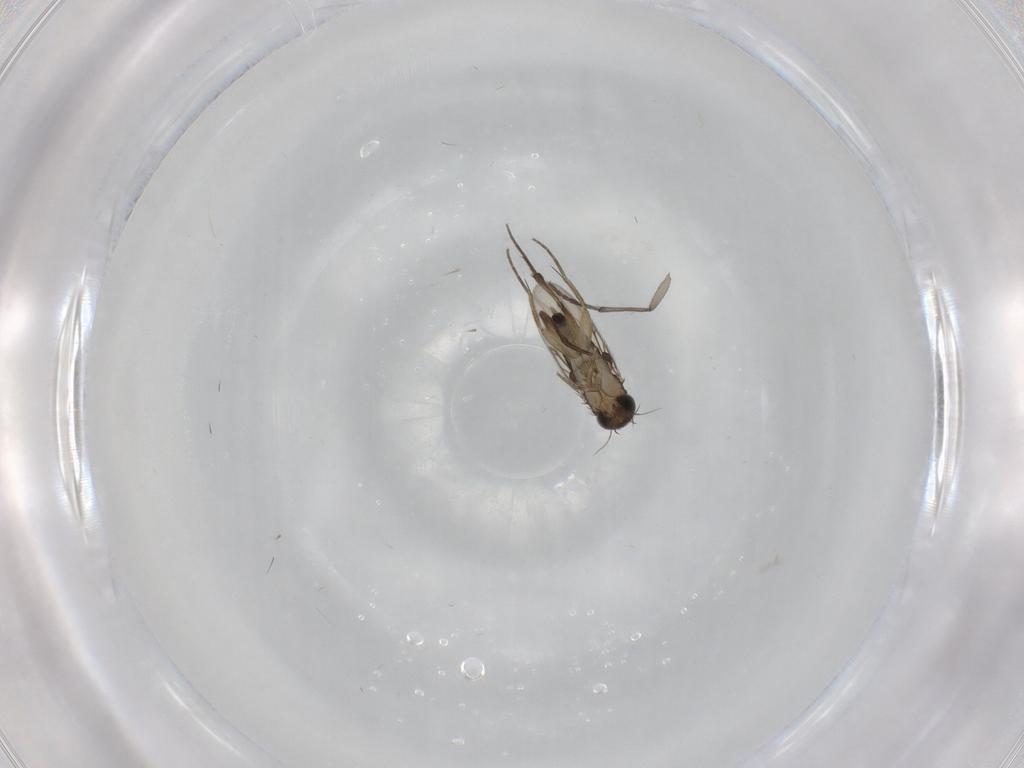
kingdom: Animalia
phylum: Arthropoda
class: Insecta
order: Diptera
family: Phoridae
